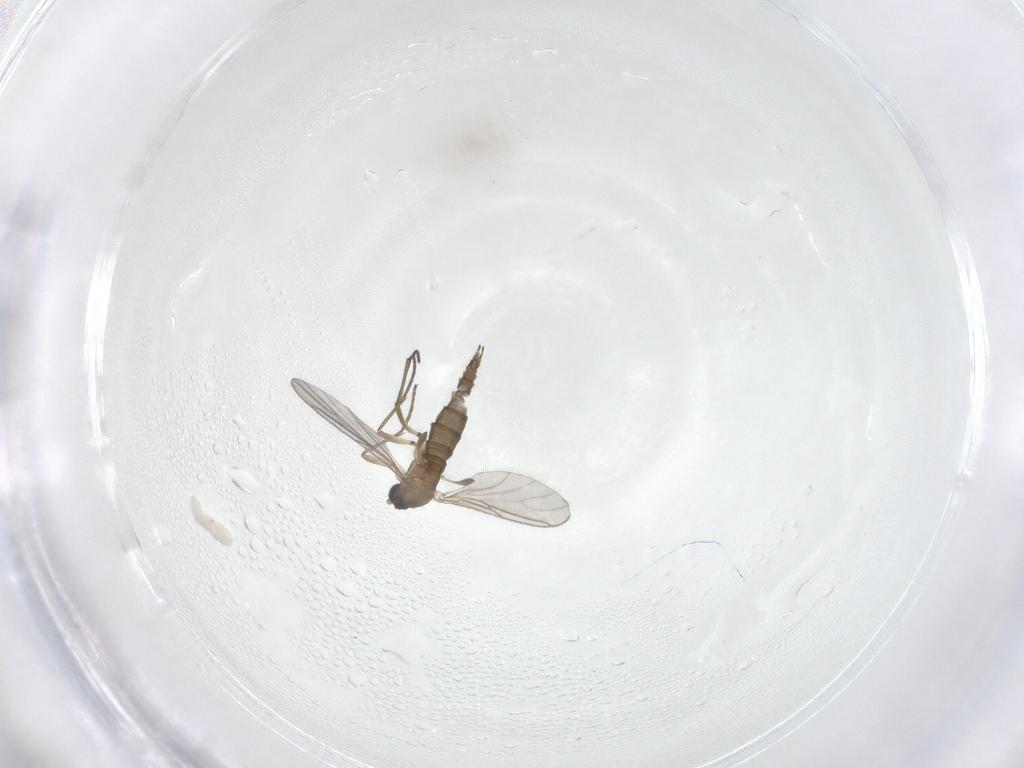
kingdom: Animalia
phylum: Arthropoda
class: Insecta
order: Diptera
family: Sciaridae
